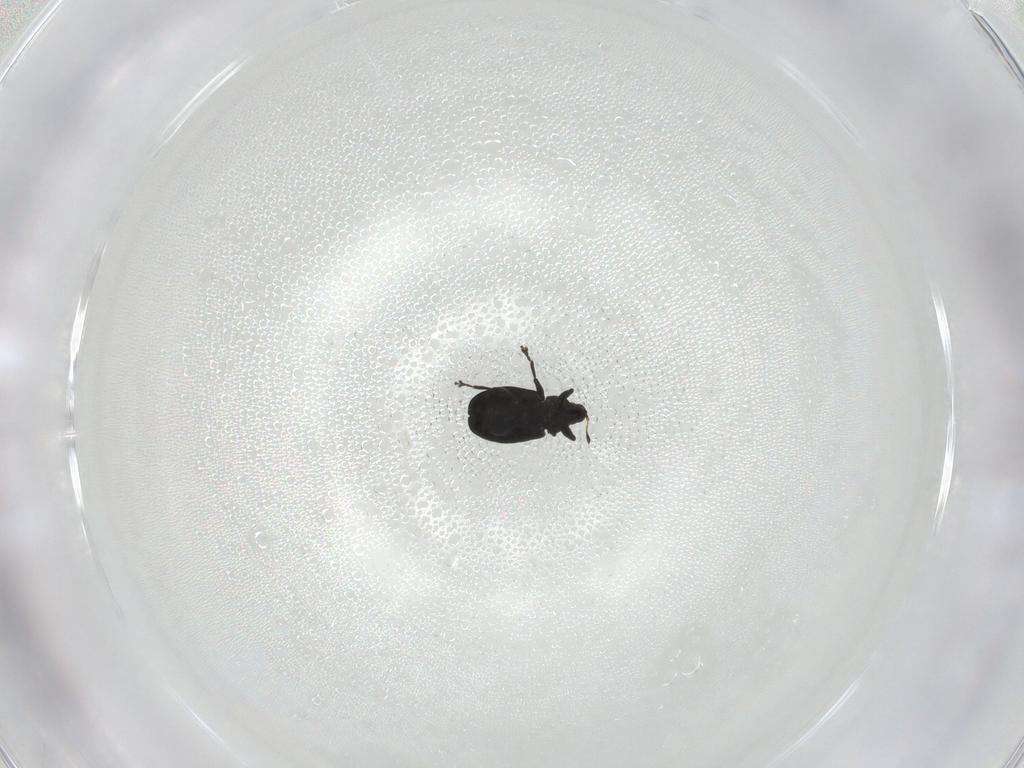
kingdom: Animalia
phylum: Arthropoda
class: Insecta
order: Coleoptera
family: Curculionidae
